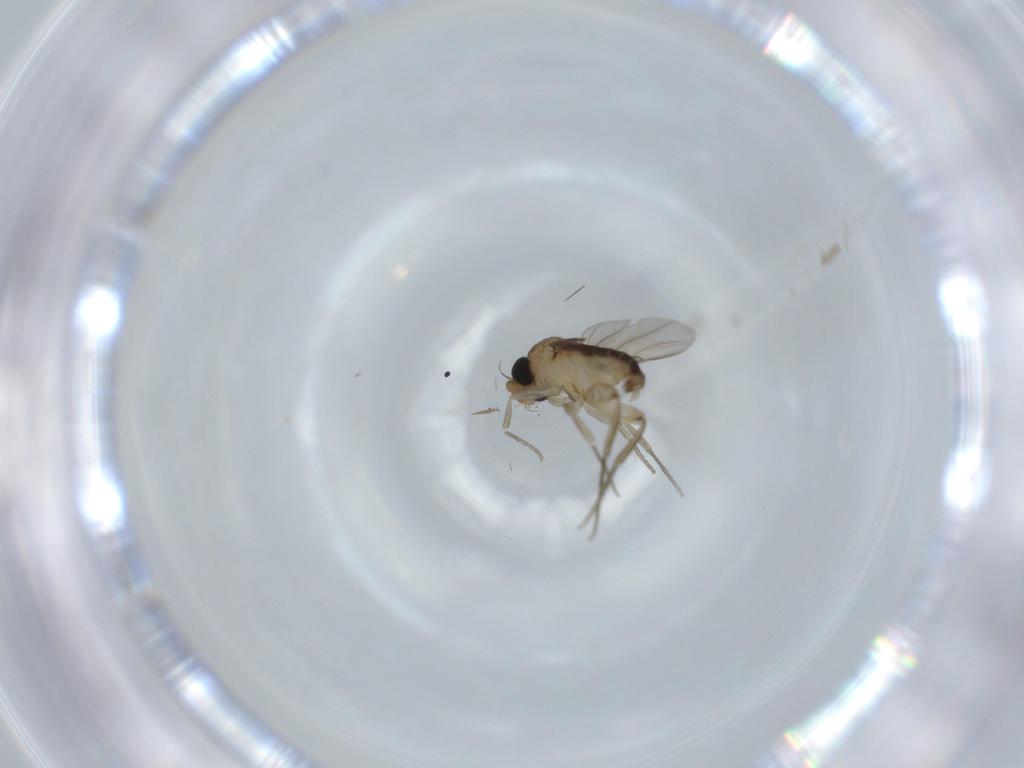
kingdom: Animalia
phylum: Arthropoda
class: Insecta
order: Diptera
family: Phoridae
